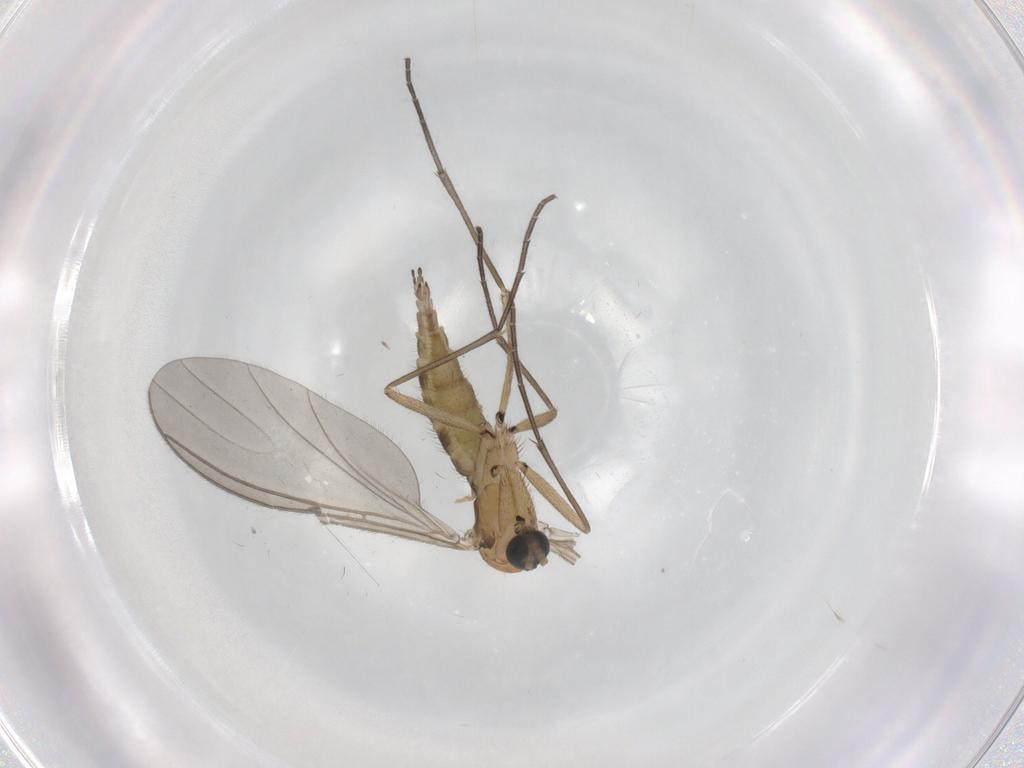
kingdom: Animalia
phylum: Arthropoda
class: Insecta
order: Diptera
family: Sciaridae
